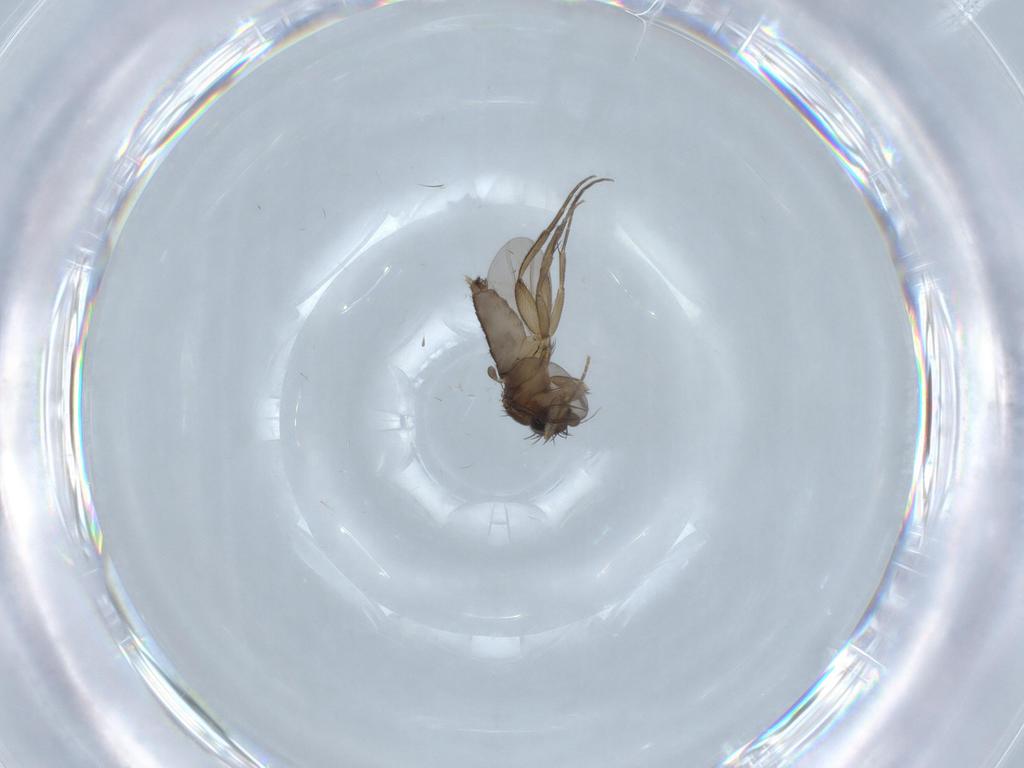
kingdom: Animalia
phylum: Arthropoda
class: Insecta
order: Diptera
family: Phoridae
